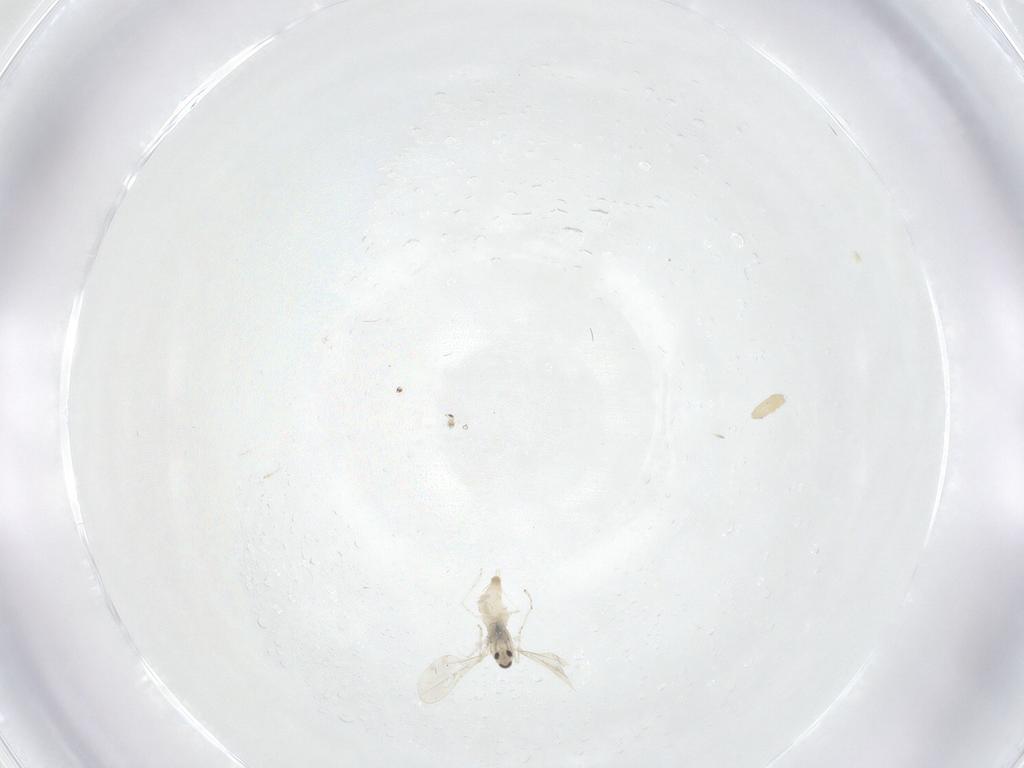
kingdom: Animalia
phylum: Arthropoda
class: Insecta
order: Diptera
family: Cecidomyiidae
